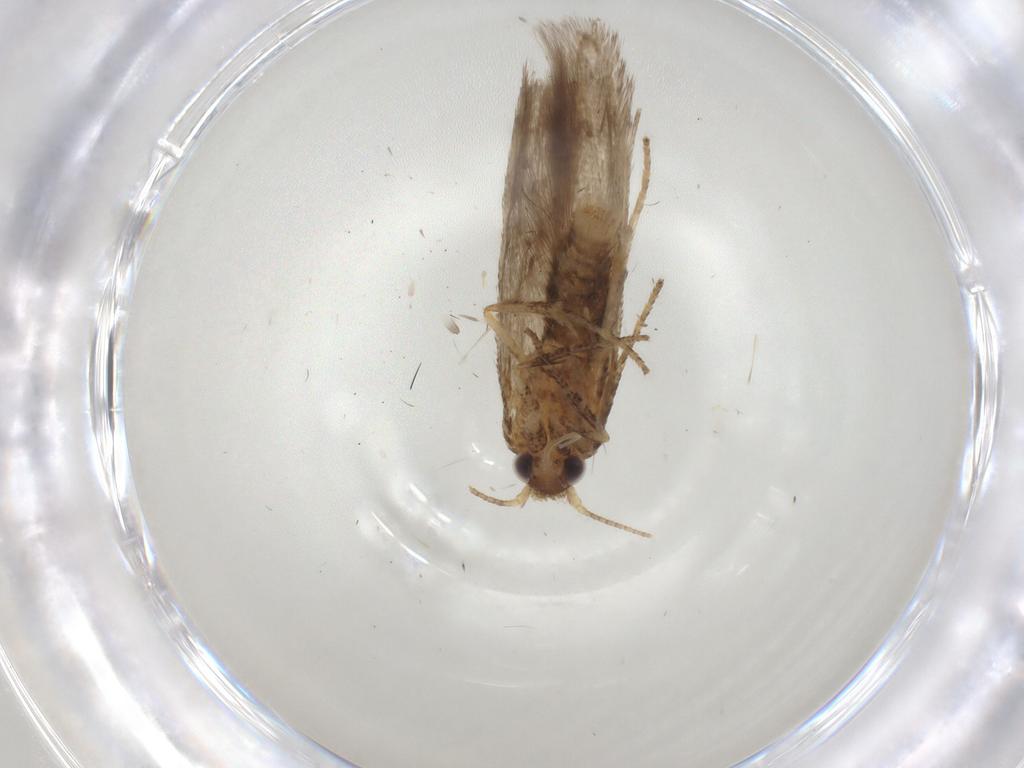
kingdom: Animalia
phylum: Arthropoda
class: Insecta
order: Lepidoptera
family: Blastobasidae
